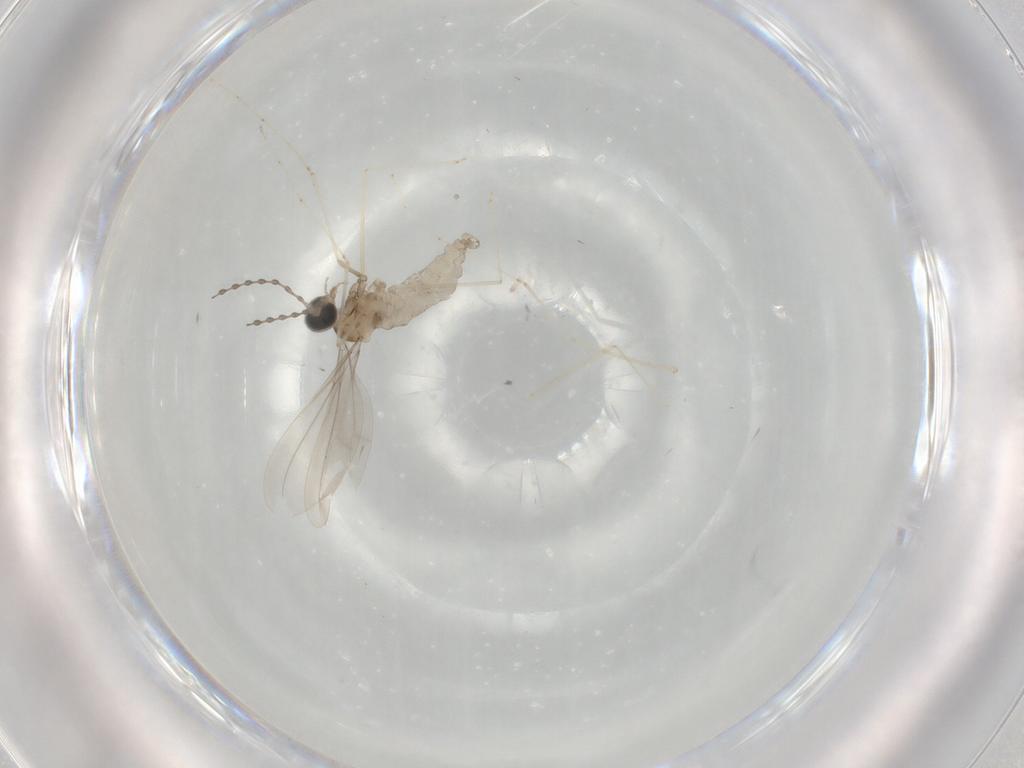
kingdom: Animalia
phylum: Arthropoda
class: Insecta
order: Diptera
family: Cecidomyiidae
